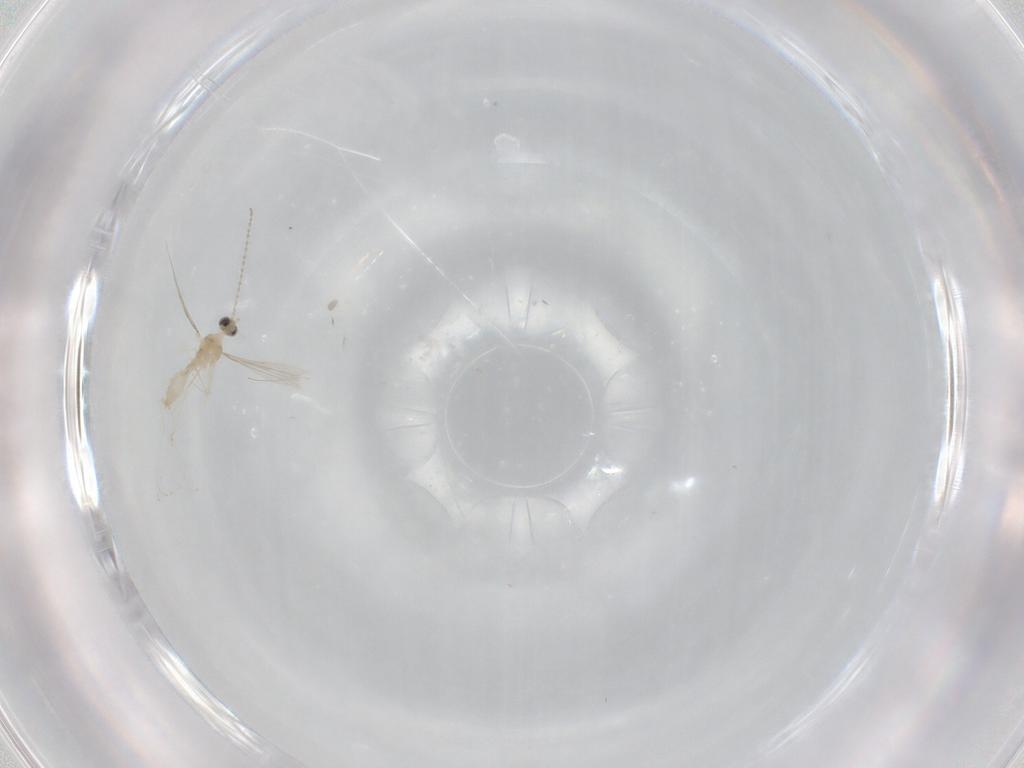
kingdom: Animalia
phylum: Arthropoda
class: Insecta
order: Diptera
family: Cecidomyiidae
